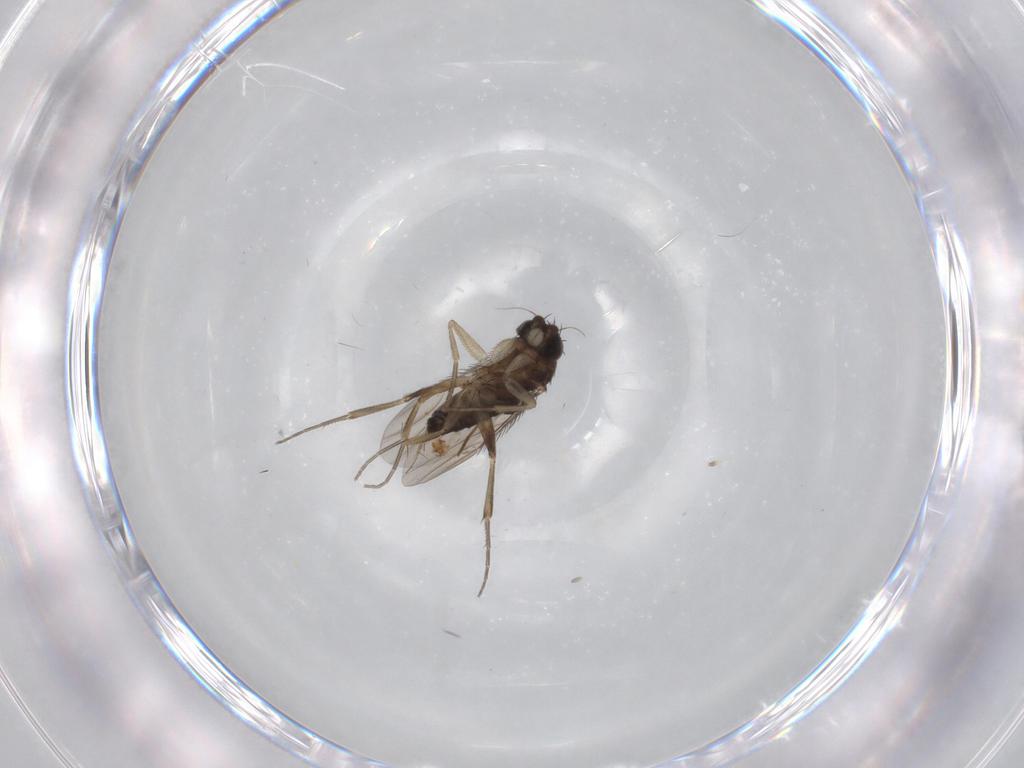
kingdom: Animalia
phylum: Arthropoda
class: Insecta
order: Diptera
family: Phoridae
